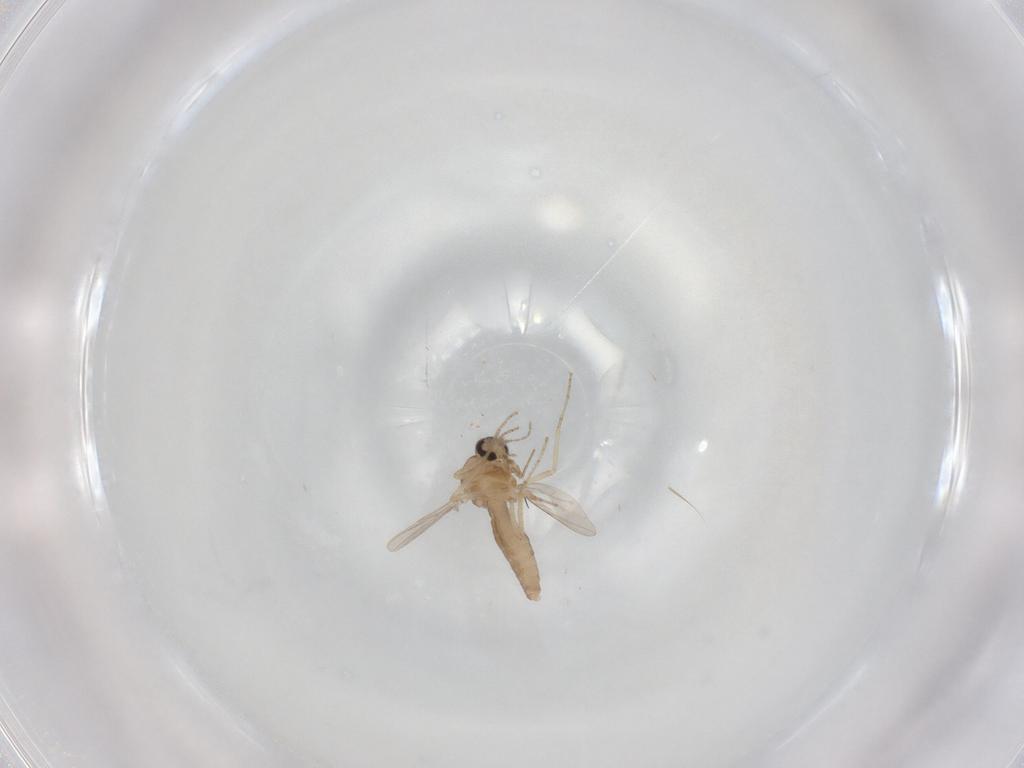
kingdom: Animalia
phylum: Arthropoda
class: Insecta
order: Diptera
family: Ceratopogonidae
